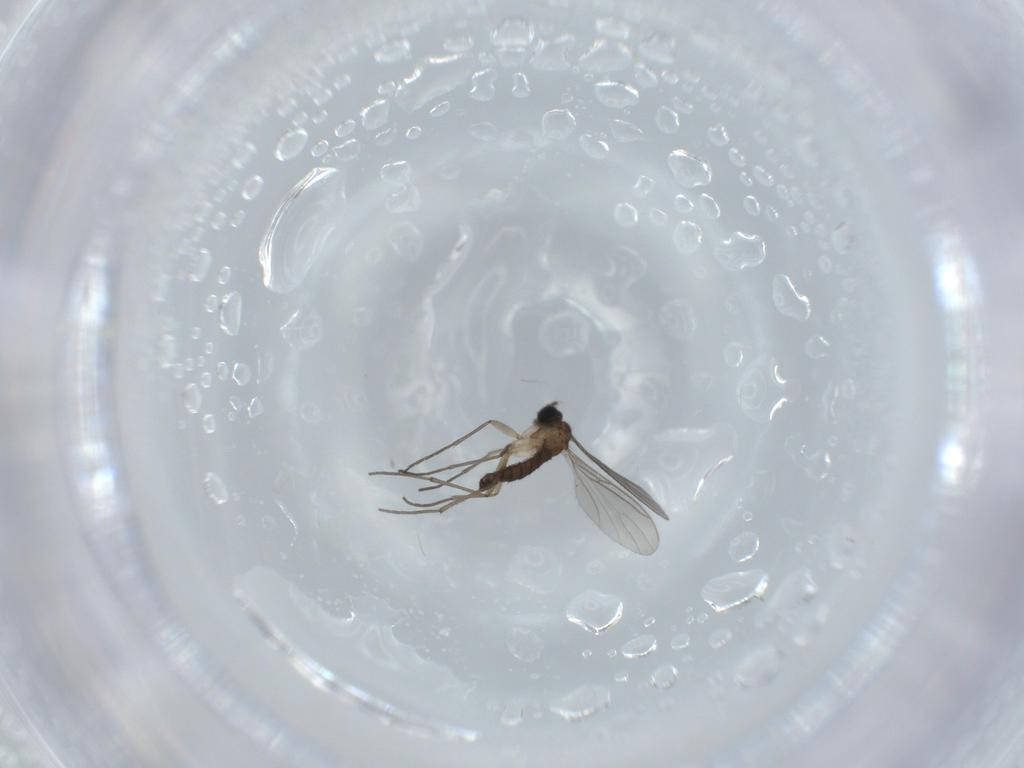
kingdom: Animalia
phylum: Arthropoda
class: Insecta
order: Diptera
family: Sciaridae
